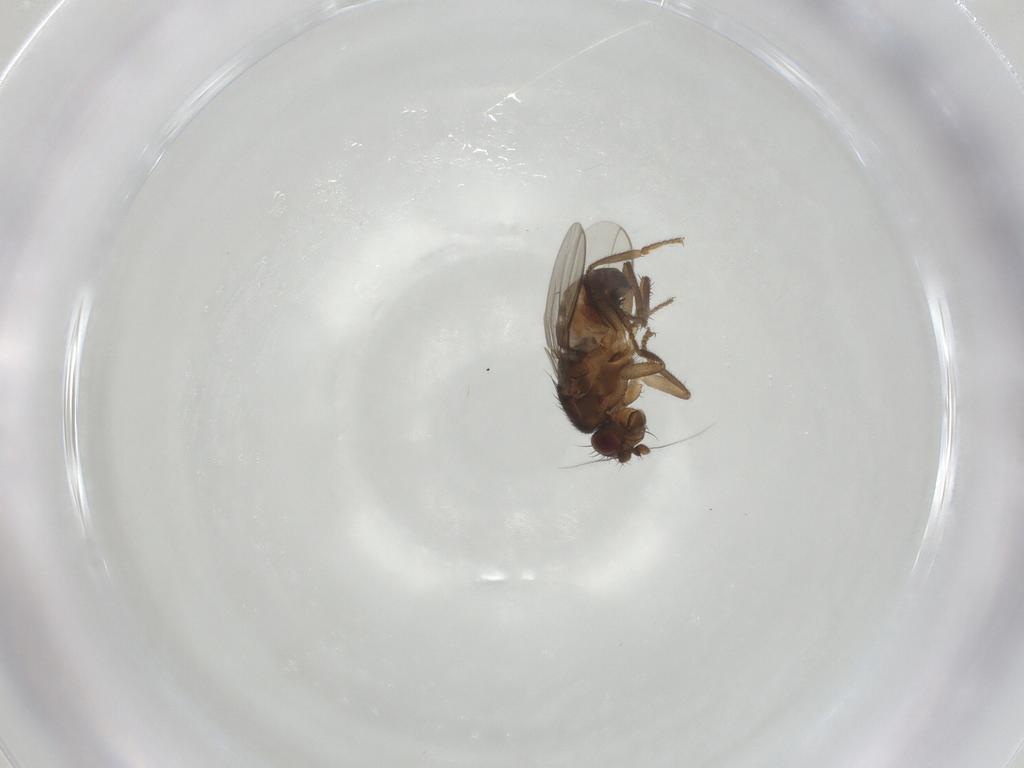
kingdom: Animalia
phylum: Arthropoda
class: Insecta
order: Diptera
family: Sphaeroceridae
